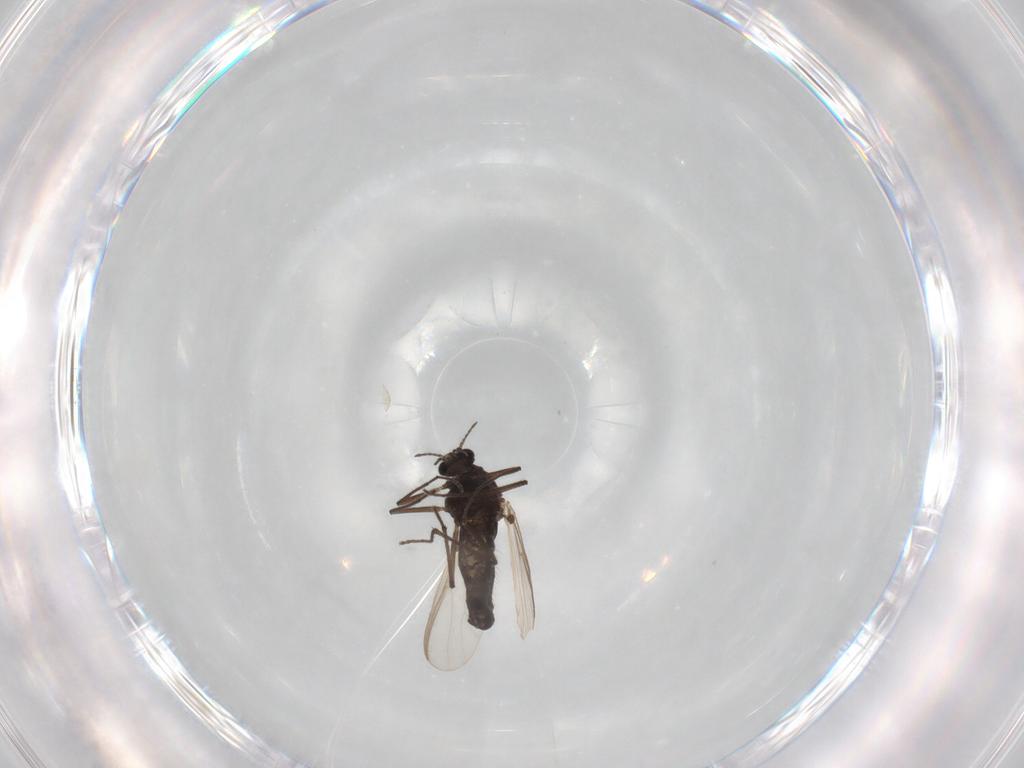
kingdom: Animalia
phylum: Arthropoda
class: Insecta
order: Diptera
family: Chironomidae
